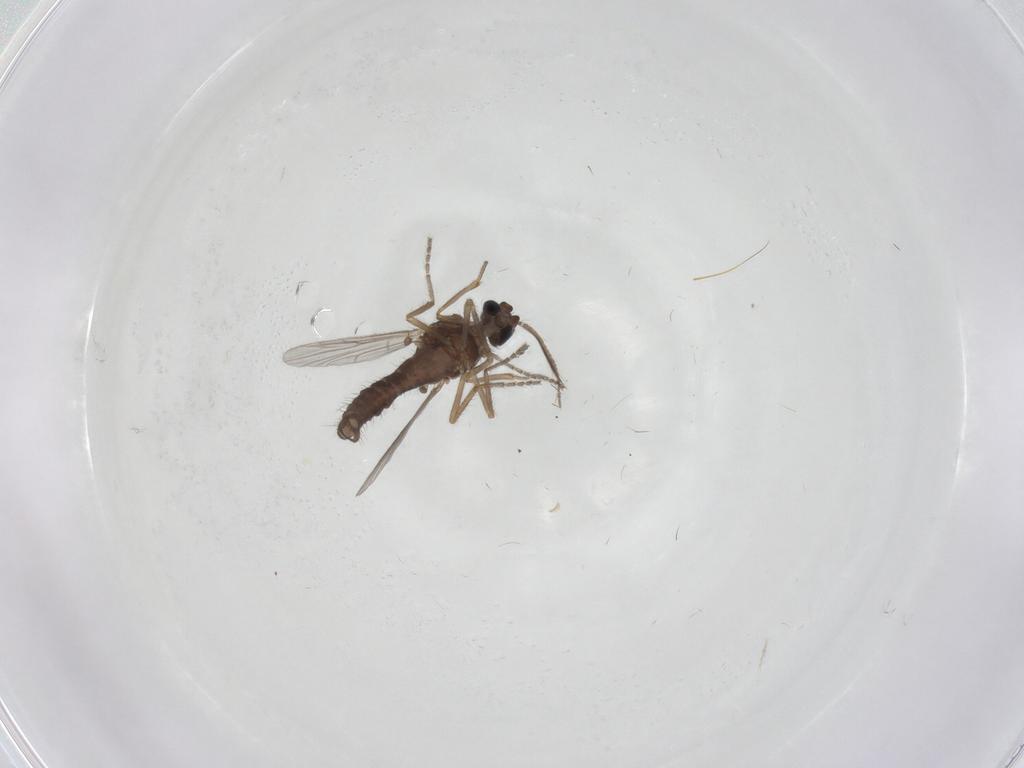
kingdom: Animalia
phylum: Arthropoda
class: Insecta
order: Diptera
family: Ceratopogonidae
